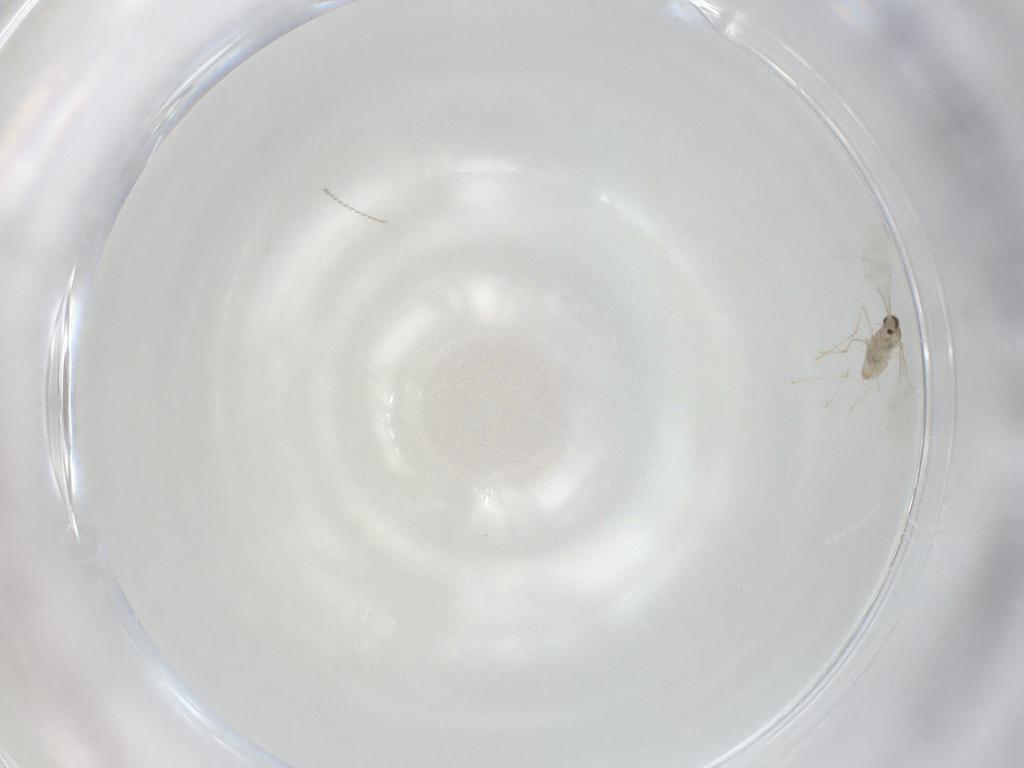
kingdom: Animalia
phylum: Arthropoda
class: Insecta
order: Diptera
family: Cecidomyiidae
